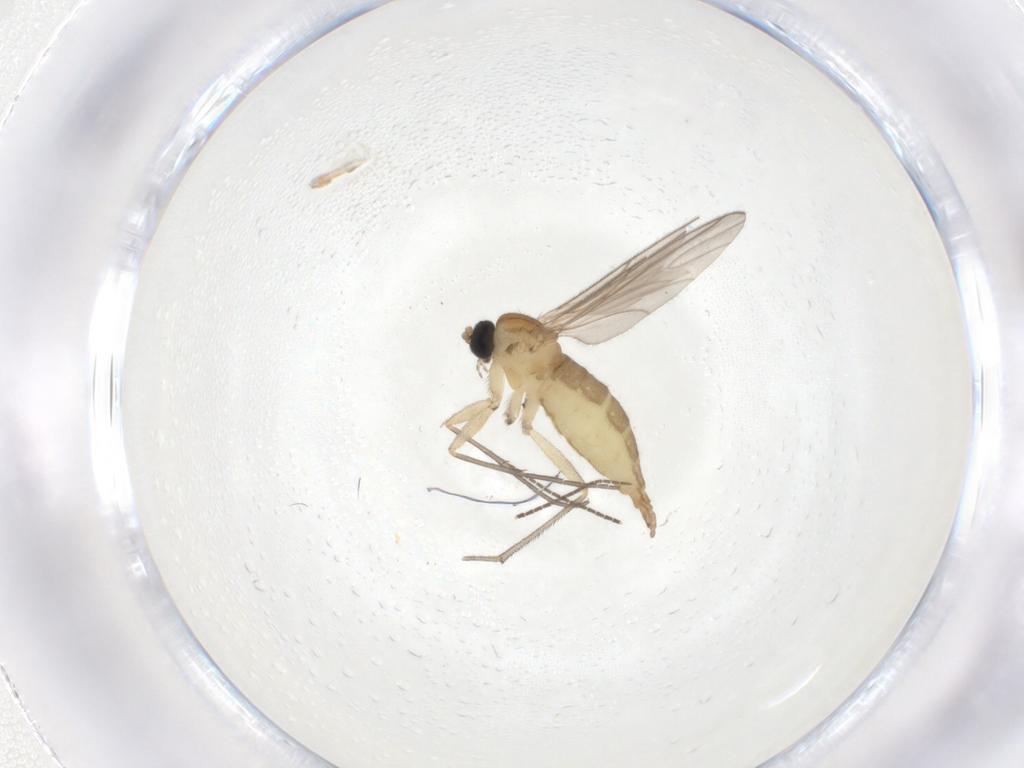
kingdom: Animalia
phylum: Arthropoda
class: Insecta
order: Diptera
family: Sciaridae
